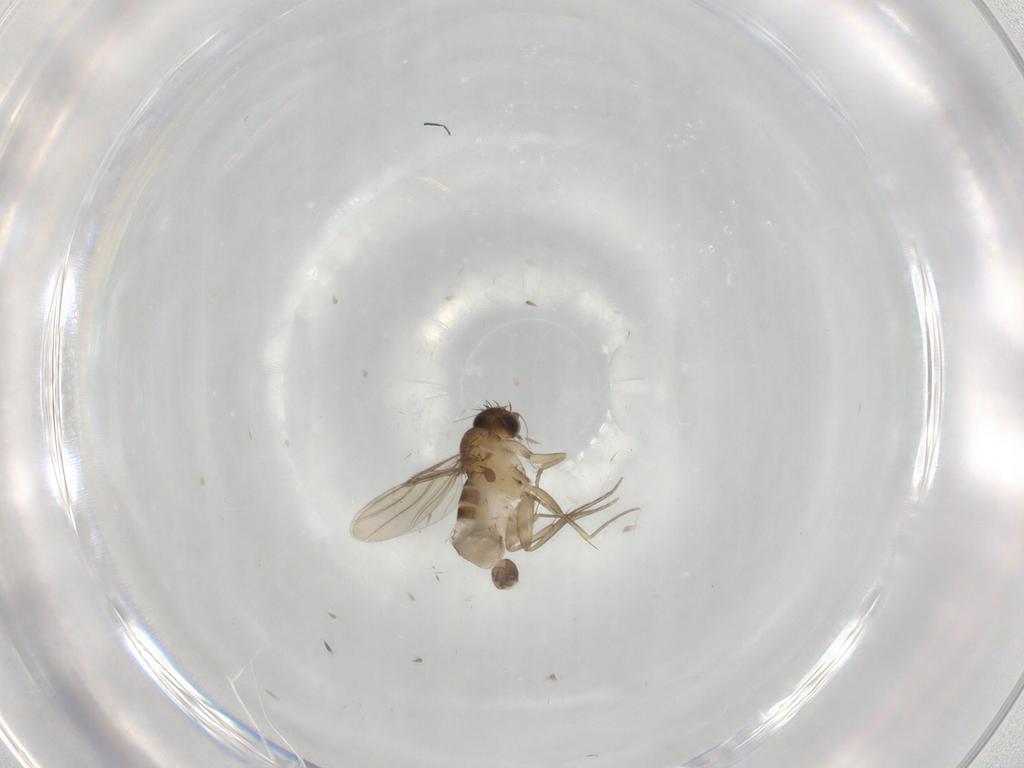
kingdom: Animalia
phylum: Arthropoda
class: Insecta
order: Diptera
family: Phoridae
